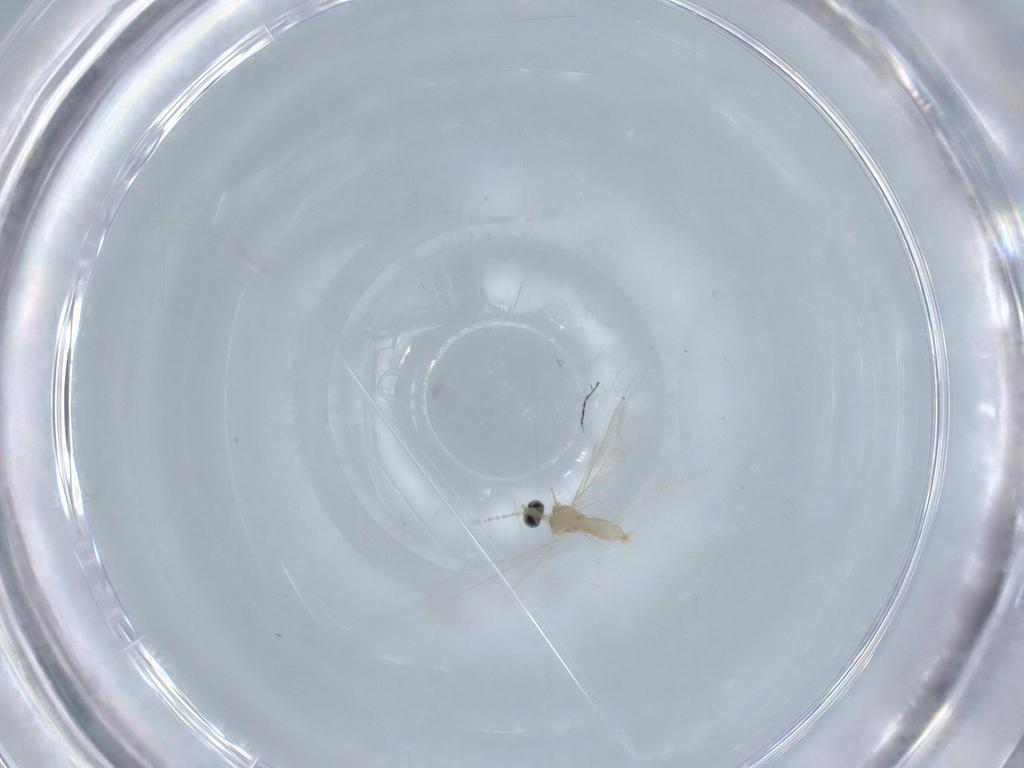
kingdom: Animalia
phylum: Arthropoda
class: Insecta
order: Diptera
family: Cecidomyiidae
